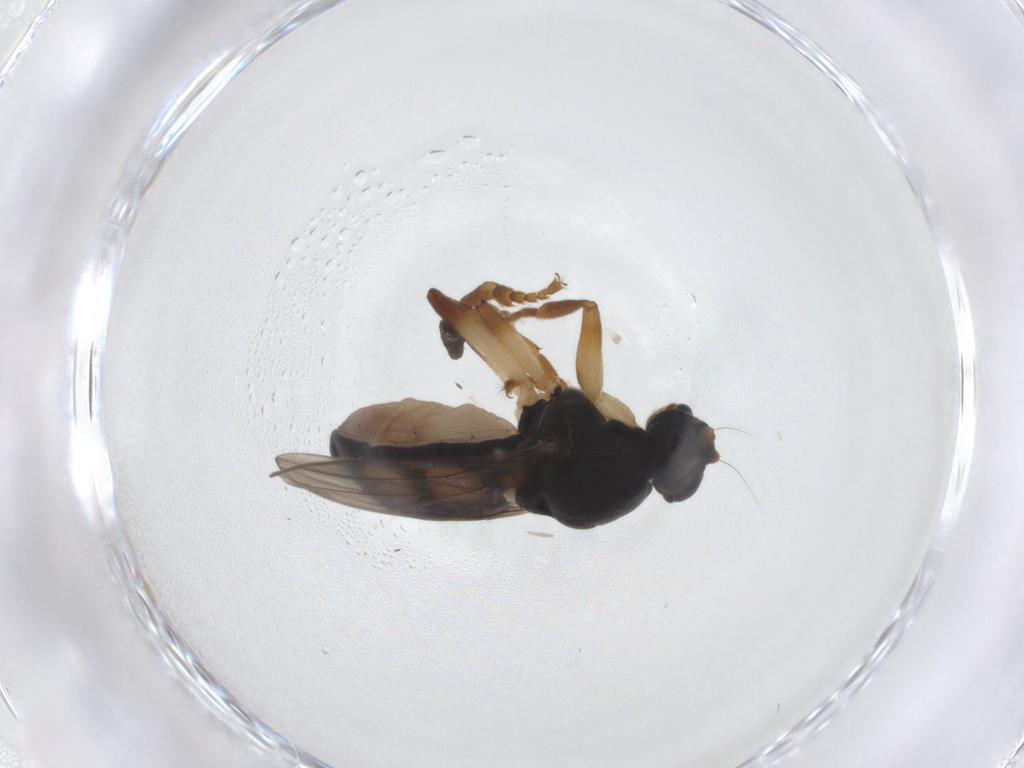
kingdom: Animalia
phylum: Arthropoda
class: Insecta
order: Diptera
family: Sphaeroceridae
